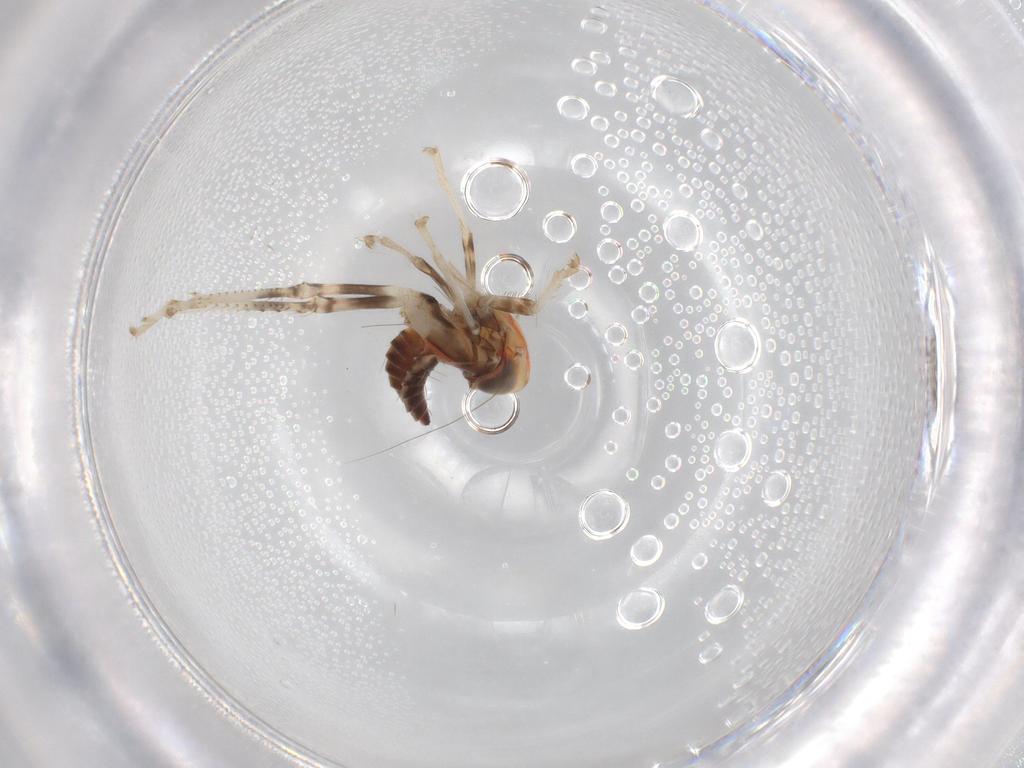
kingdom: Animalia
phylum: Arthropoda
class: Insecta
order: Hemiptera
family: Cicadellidae
